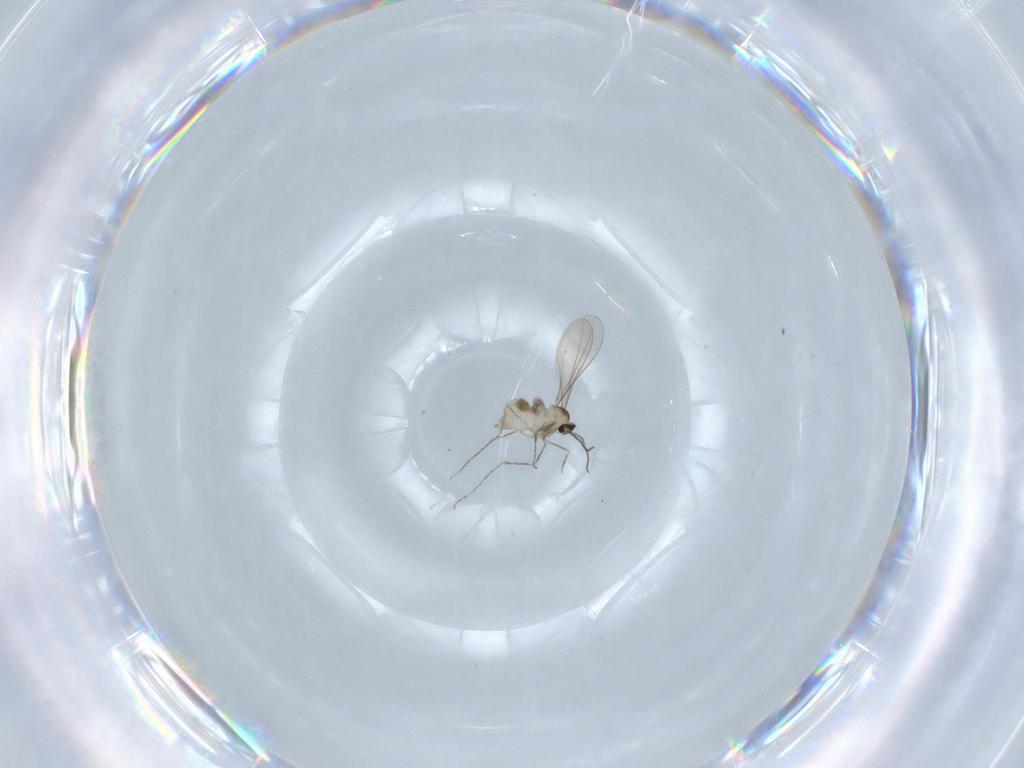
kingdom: Animalia
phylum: Arthropoda
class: Insecta
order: Diptera
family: Cecidomyiidae
